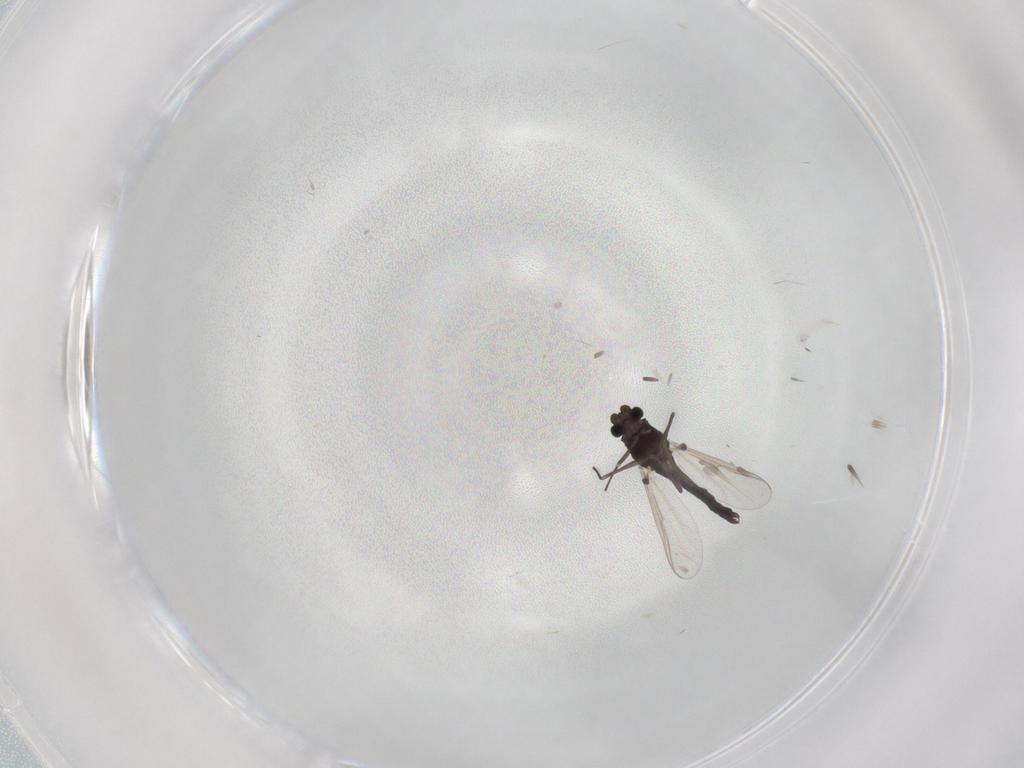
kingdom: Animalia
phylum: Arthropoda
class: Insecta
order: Diptera
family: Chironomidae
